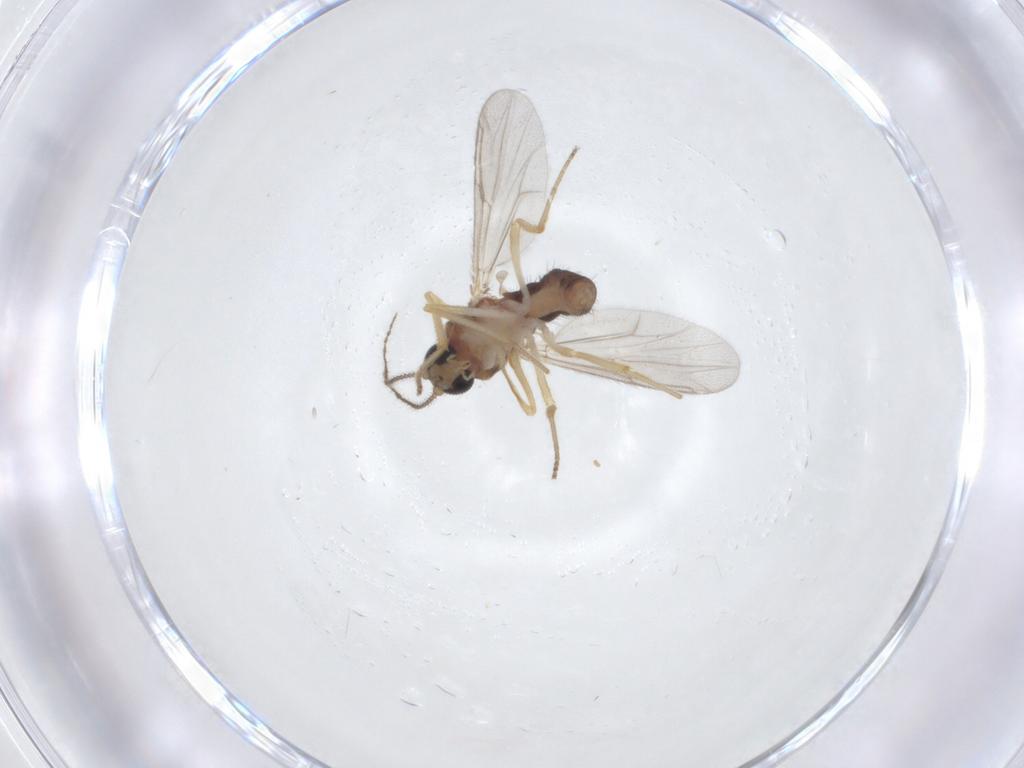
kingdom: Animalia
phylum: Arthropoda
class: Insecta
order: Diptera
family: Ceratopogonidae
